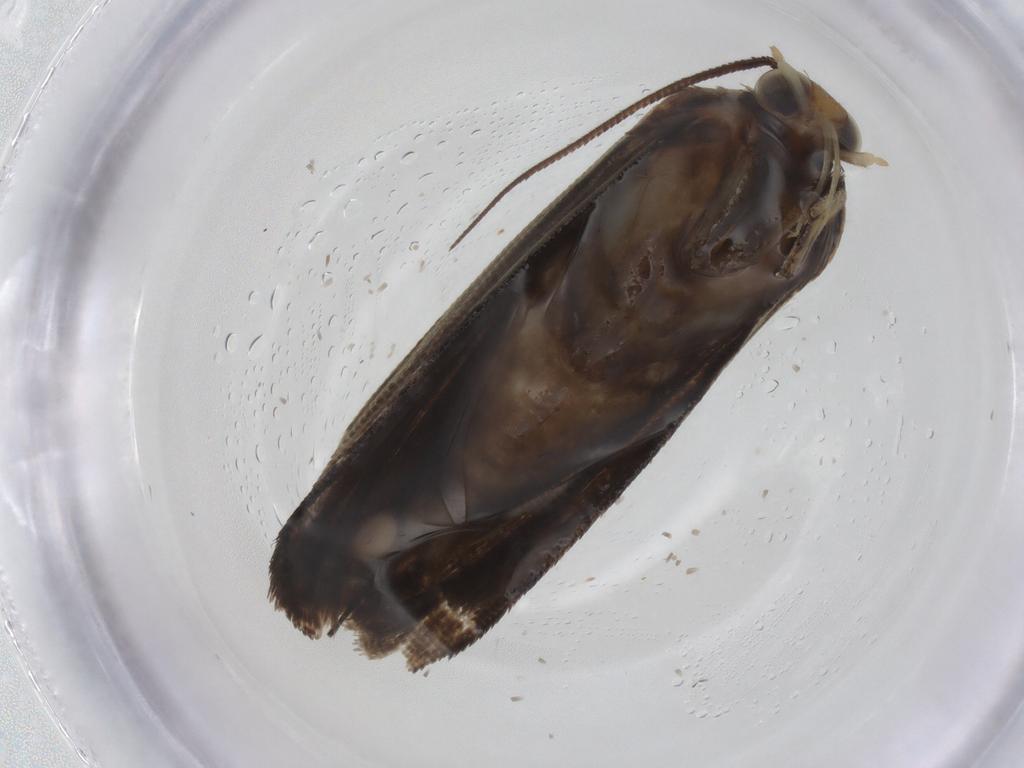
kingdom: Animalia
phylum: Arthropoda
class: Insecta
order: Lepidoptera
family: Tortricidae
